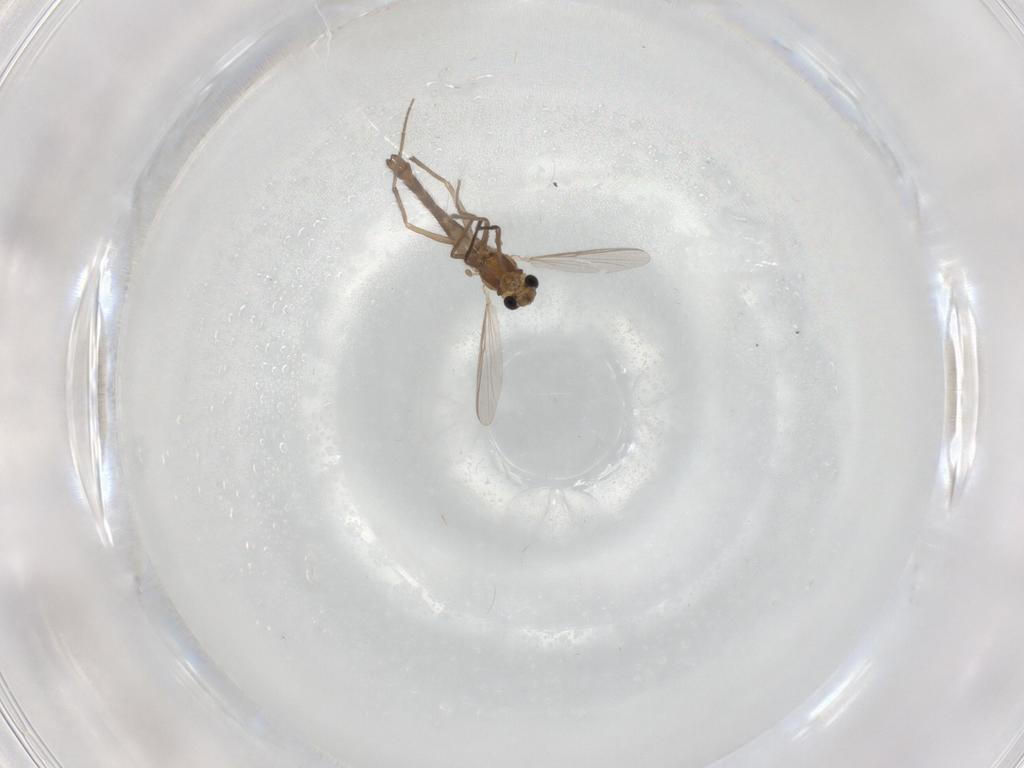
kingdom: Animalia
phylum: Arthropoda
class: Insecta
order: Diptera
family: Chironomidae
